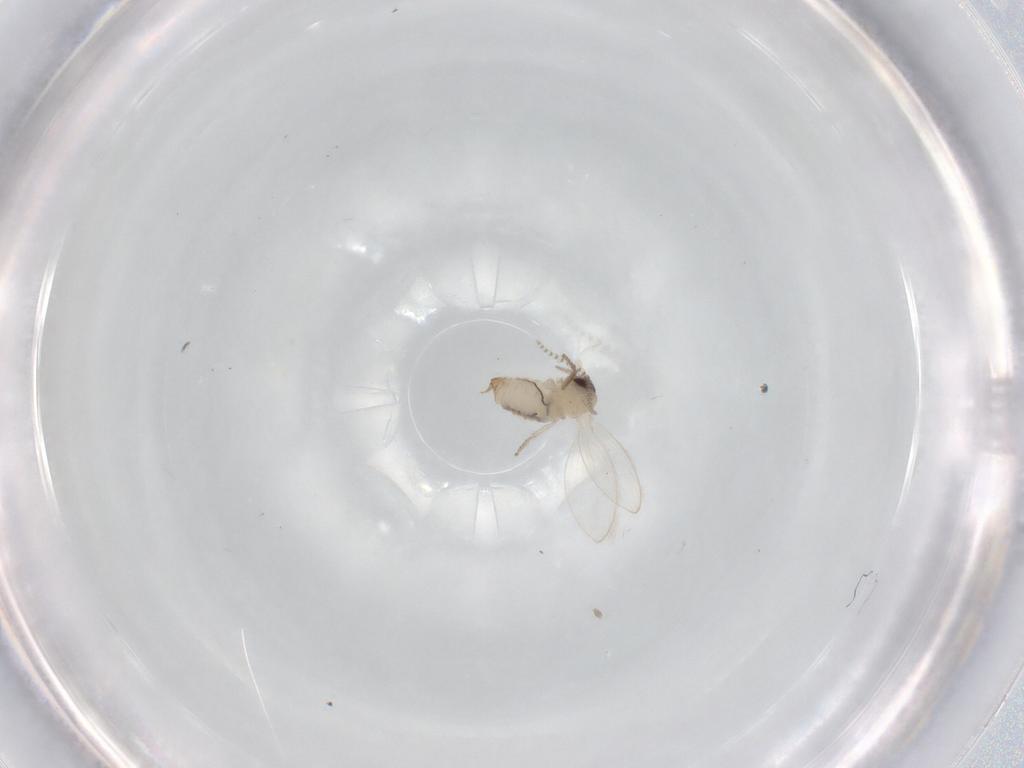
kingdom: Animalia
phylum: Arthropoda
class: Insecta
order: Diptera
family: Psychodidae
